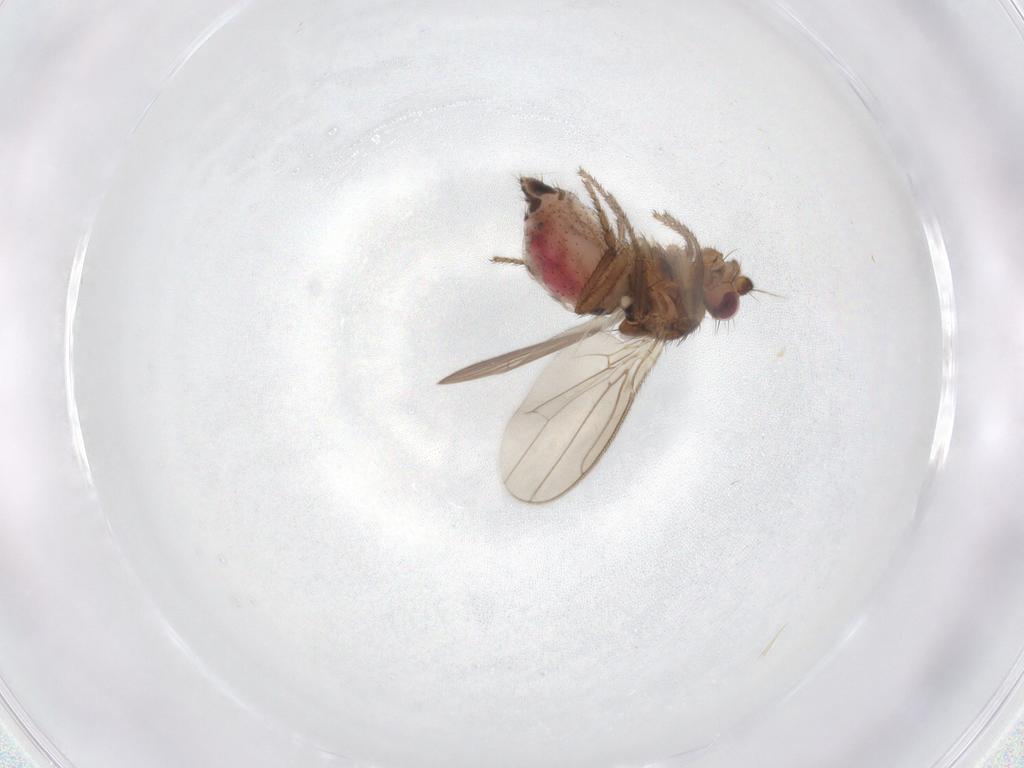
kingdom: Animalia
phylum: Arthropoda
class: Insecta
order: Diptera
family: Sphaeroceridae
